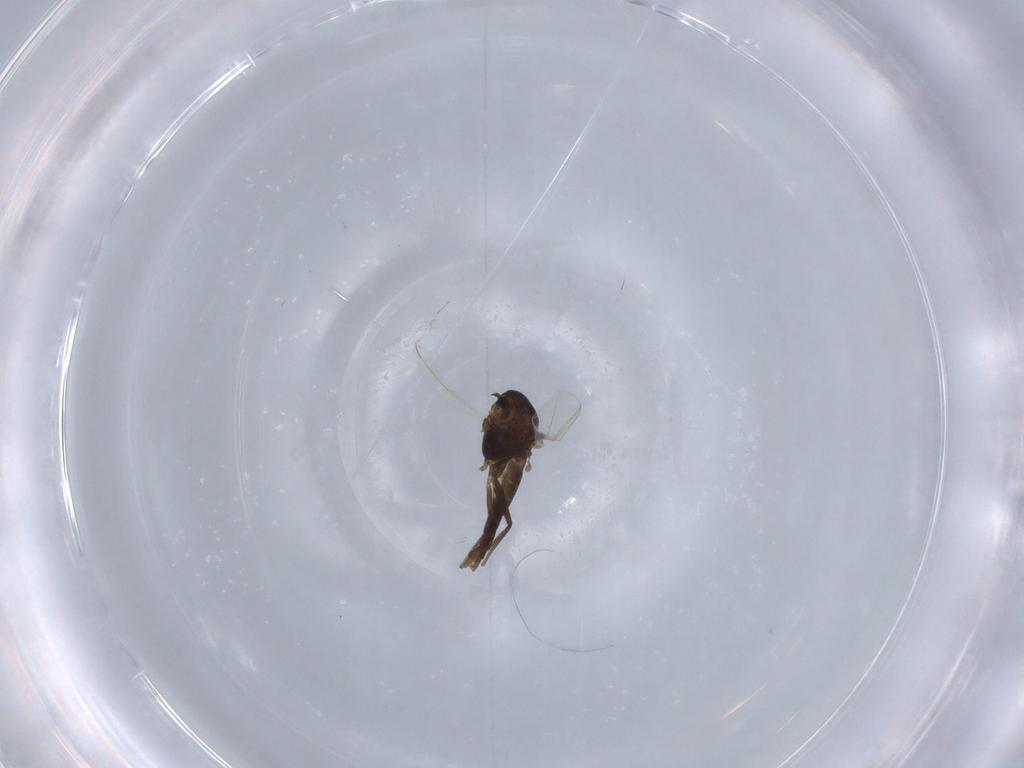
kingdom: Animalia
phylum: Arthropoda
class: Insecta
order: Diptera
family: Chironomidae
